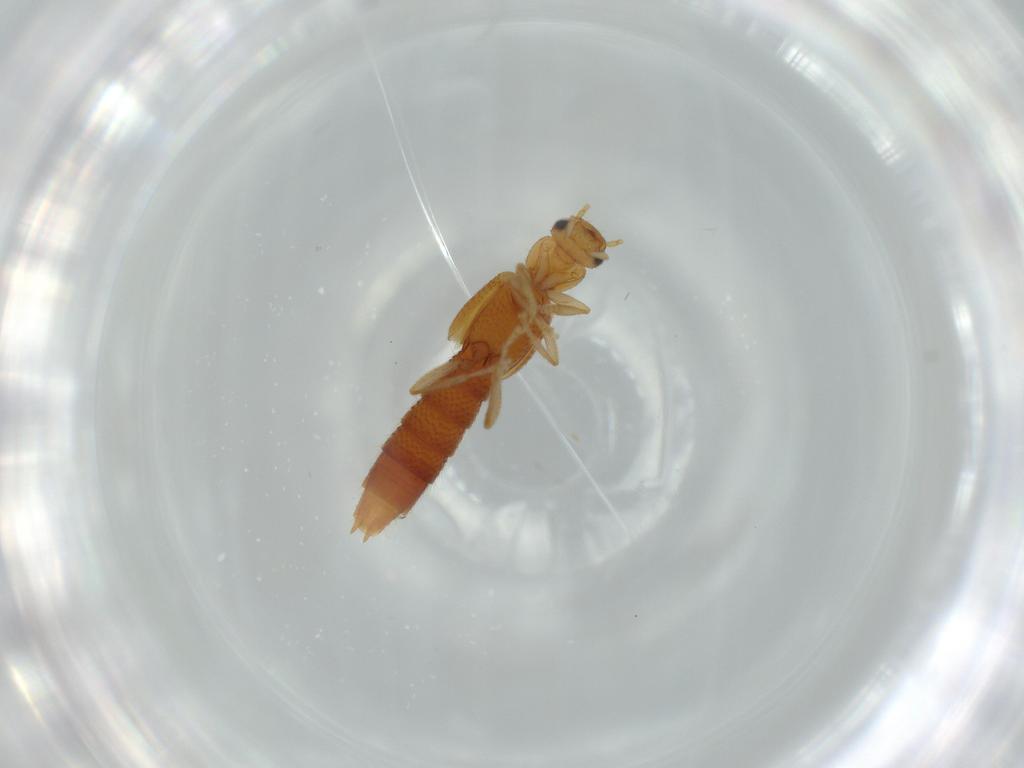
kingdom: Animalia
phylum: Arthropoda
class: Insecta
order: Coleoptera
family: Staphylinidae
